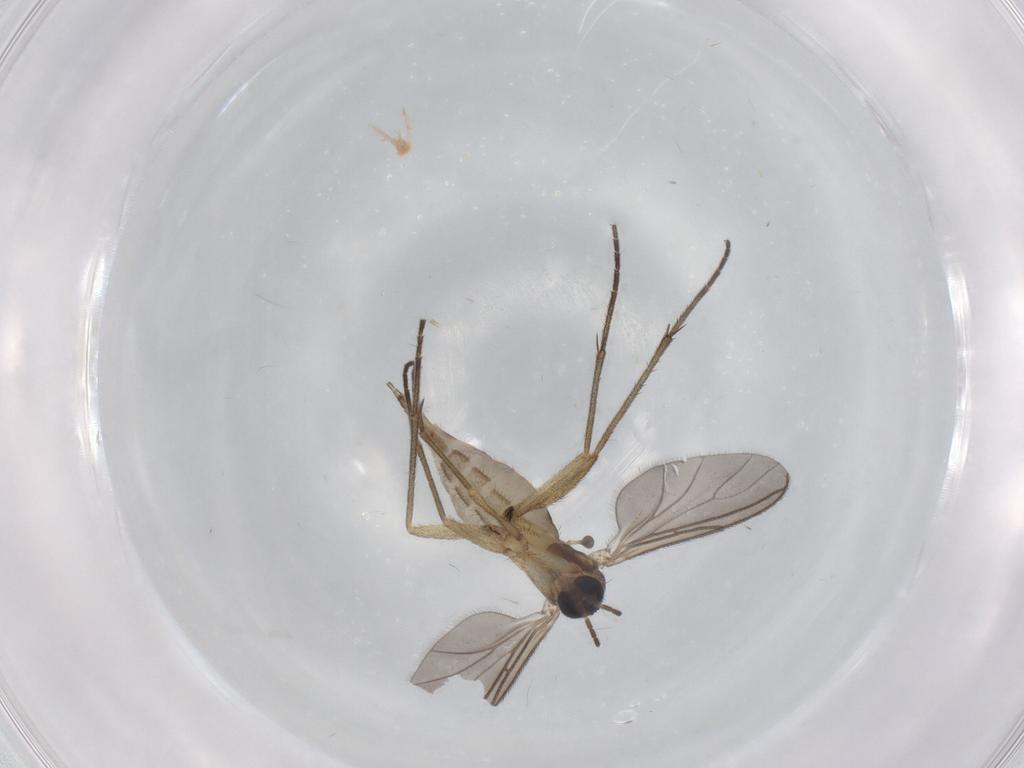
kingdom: Animalia
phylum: Arthropoda
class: Insecta
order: Diptera
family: Sciaridae
